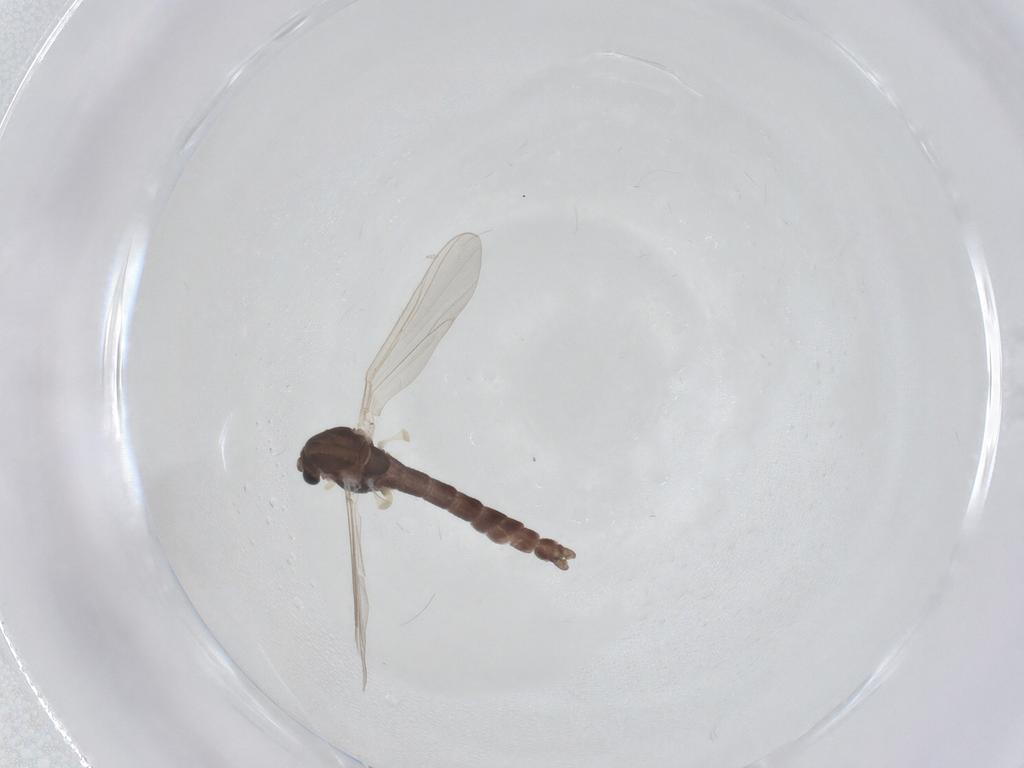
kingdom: Animalia
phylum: Arthropoda
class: Insecta
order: Diptera
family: Chironomidae
